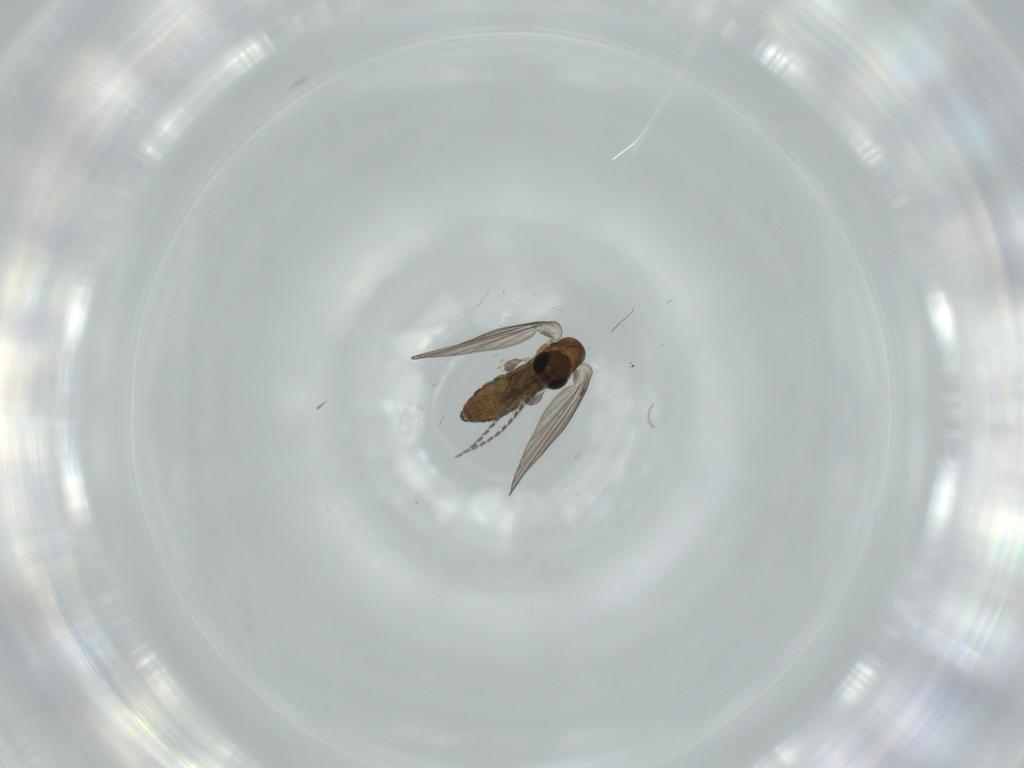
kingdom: Animalia
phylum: Arthropoda
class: Insecta
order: Diptera
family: Psychodidae
